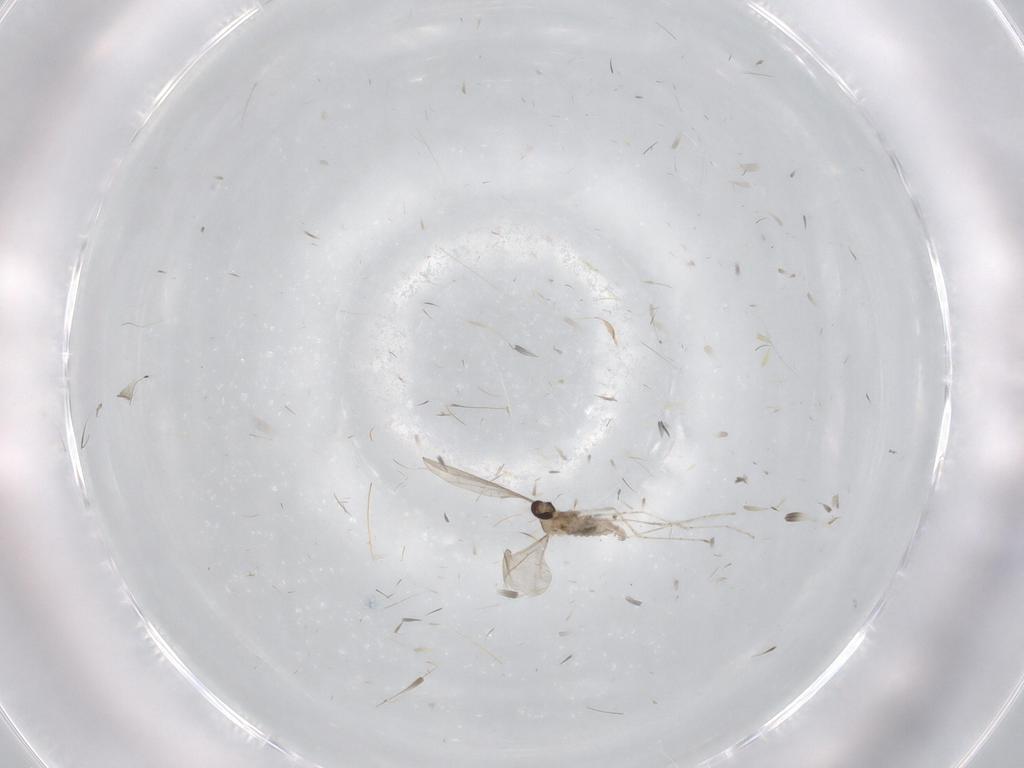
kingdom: Animalia
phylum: Arthropoda
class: Insecta
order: Diptera
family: Cecidomyiidae
